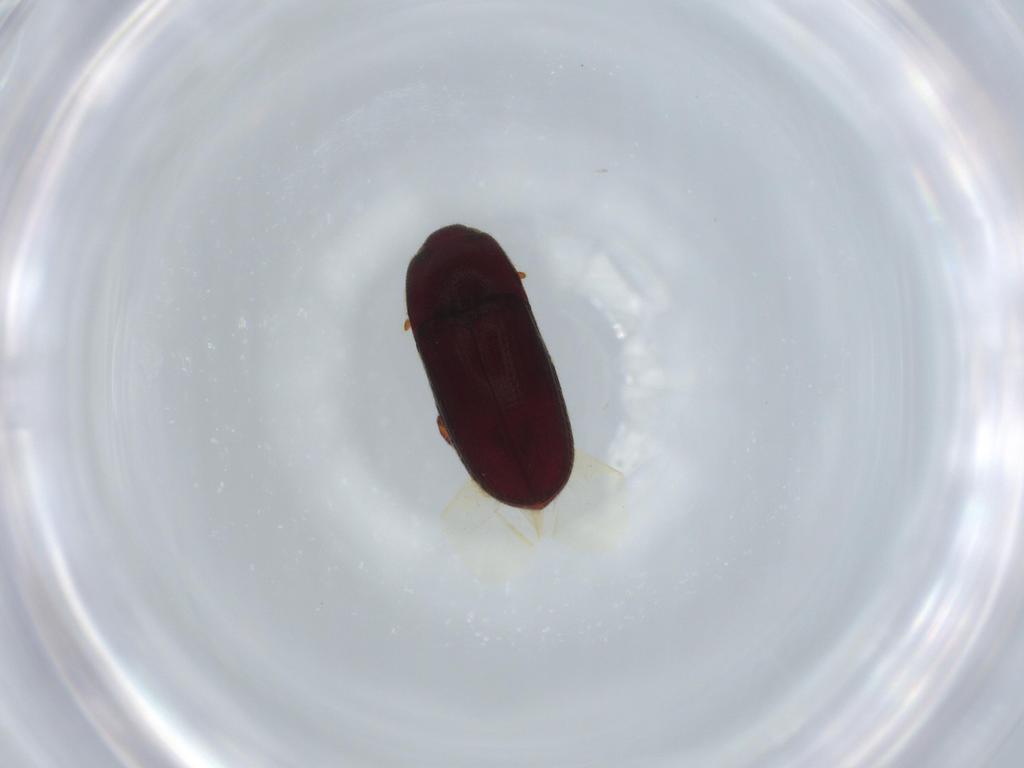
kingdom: Animalia
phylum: Arthropoda
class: Insecta
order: Coleoptera
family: Throscidae
